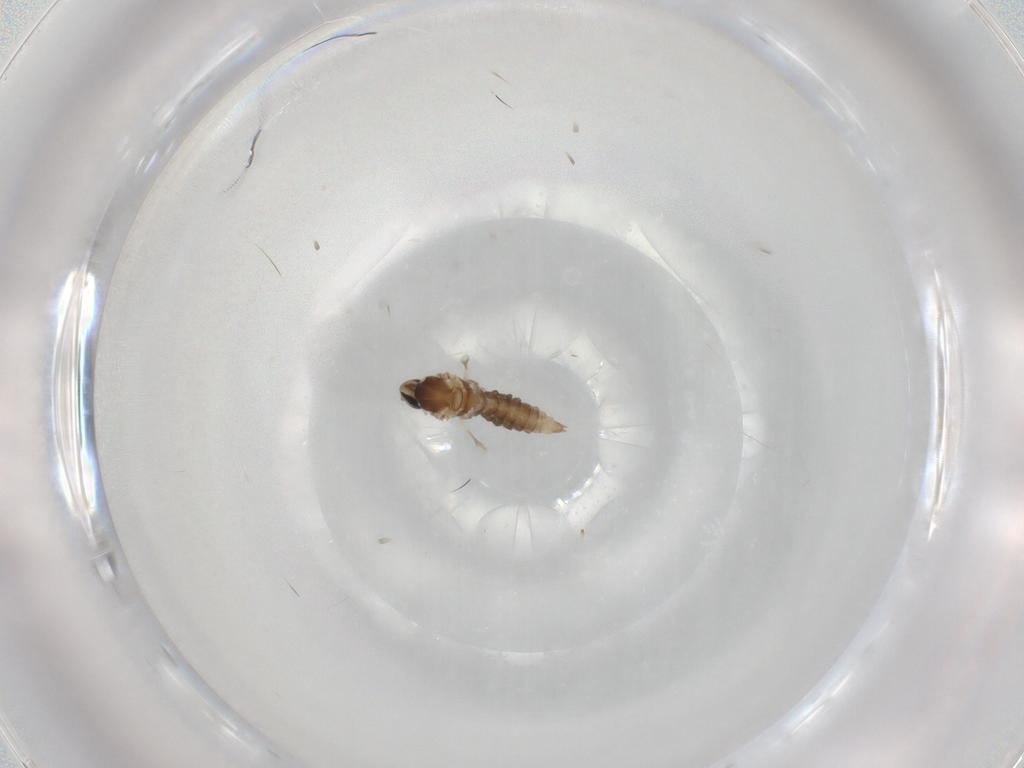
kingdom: Animalia
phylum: Arthropoda
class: Insecta
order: Diptera
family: Cecidomyiidae
